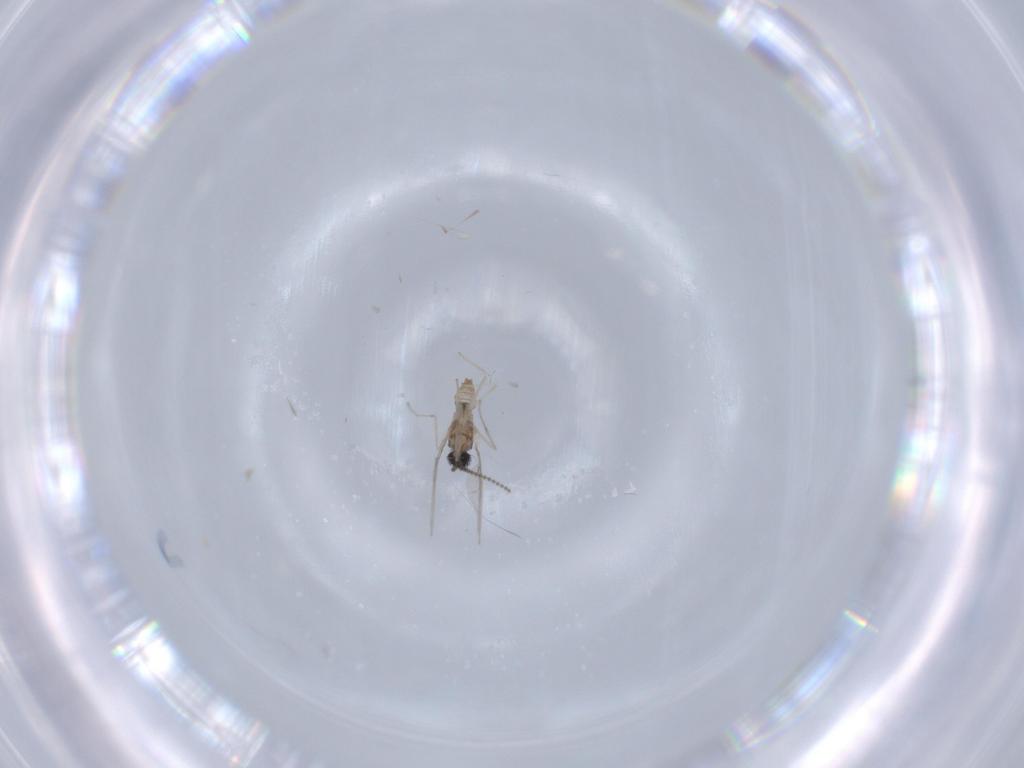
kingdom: Animalia
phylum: Arthropoda
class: Insecta
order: Diptera
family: Cecidomyiidae
